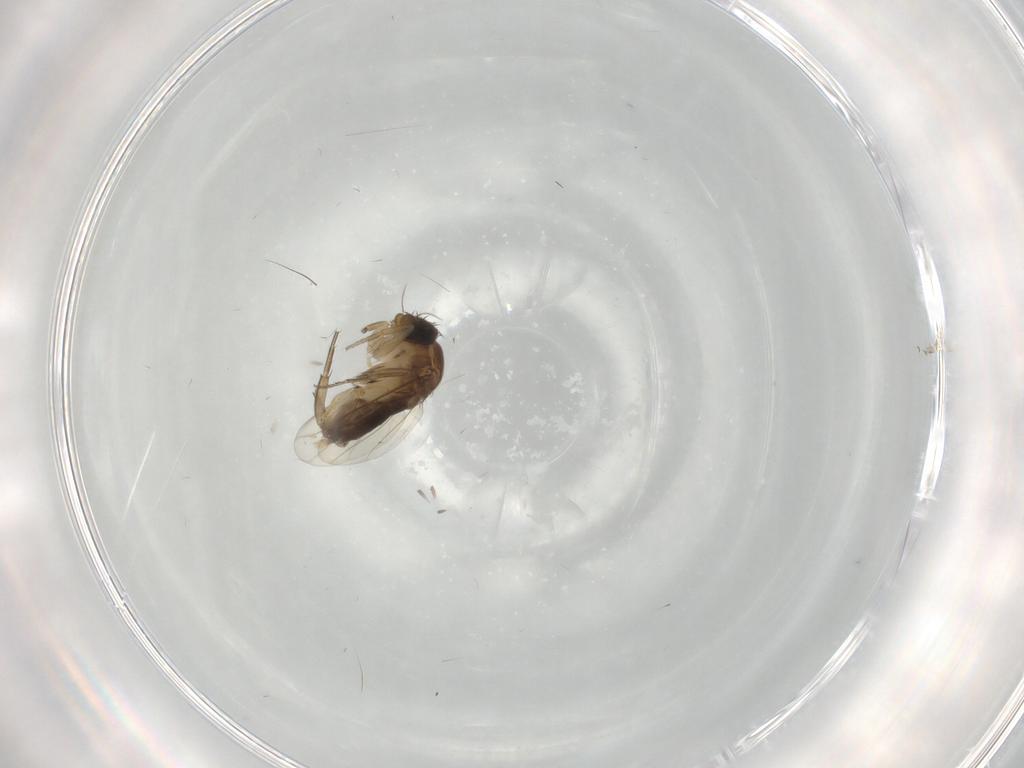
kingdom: Animalia
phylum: Arthropoda
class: Insecta
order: Diptera
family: Phoridae
